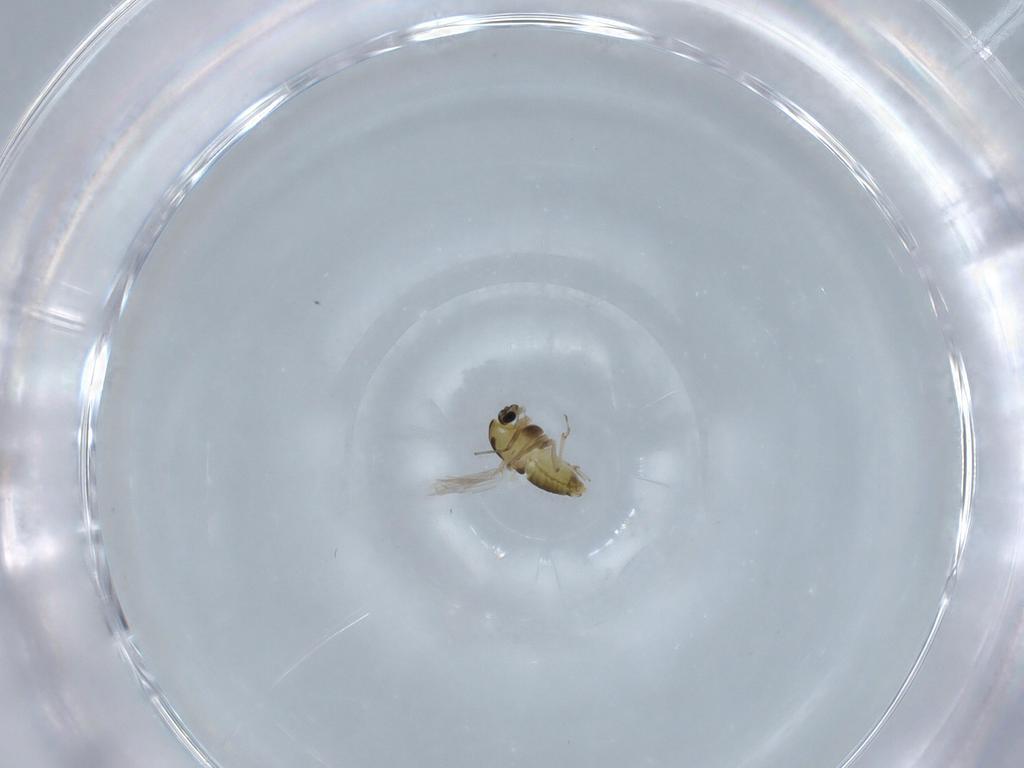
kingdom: Animalia
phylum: Arthropoda
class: Insecta
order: Diptera
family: Chironomidae
